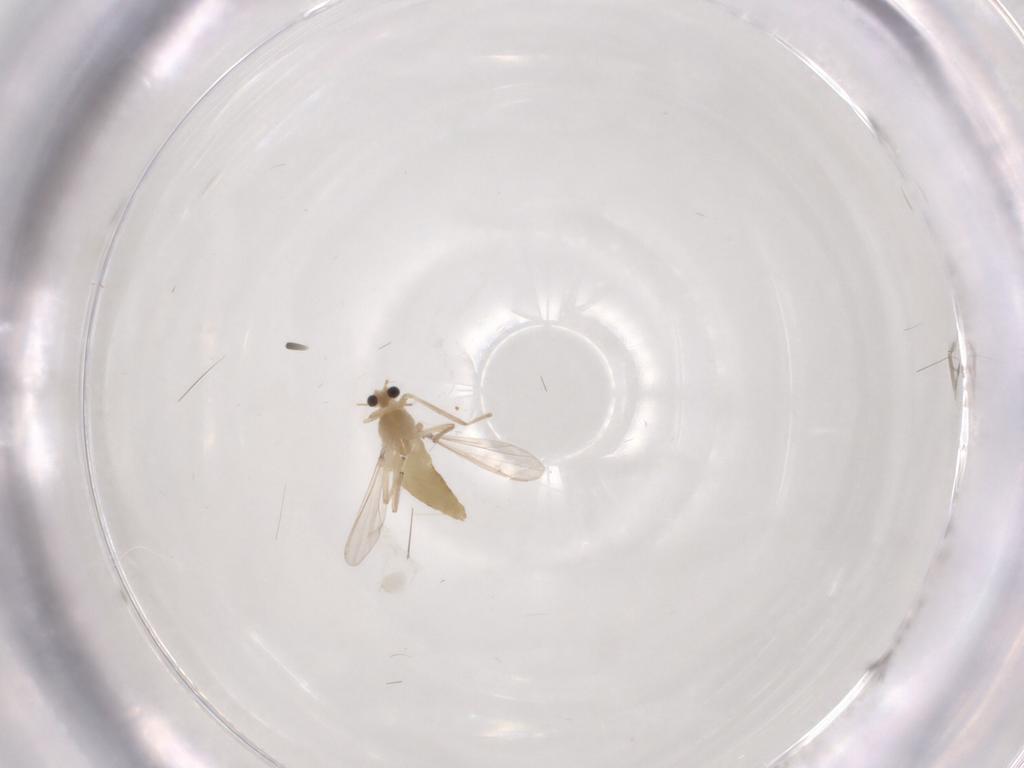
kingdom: Animalia
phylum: Arthropoda
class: Insecta
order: Diptera
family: Chironomidae
